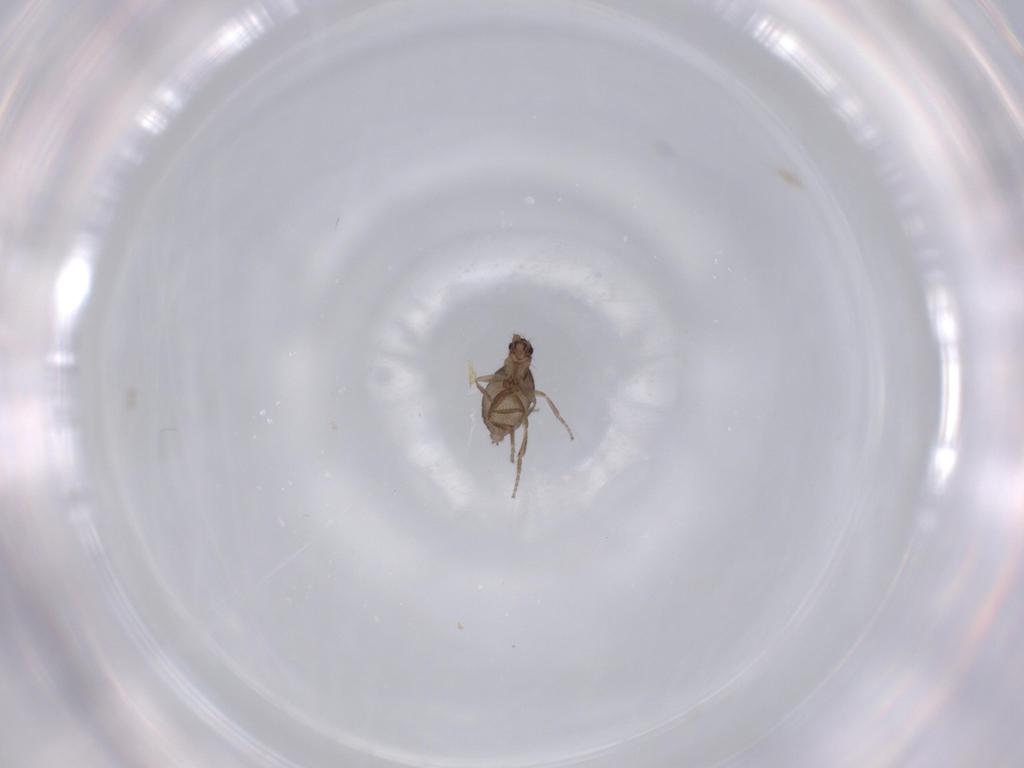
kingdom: Animalia
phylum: Arthropoda
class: Insecta
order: Diptera
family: Phoridae
